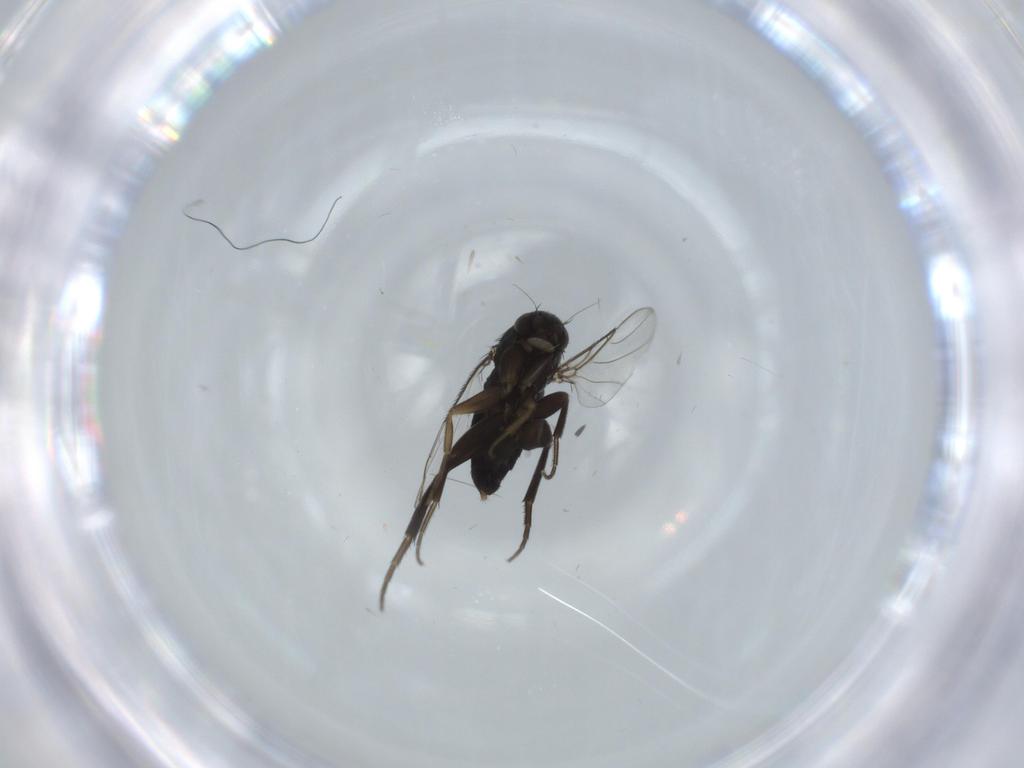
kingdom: Animalia
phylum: Arthropoda
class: Insecta
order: Diptera
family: Phoridae
